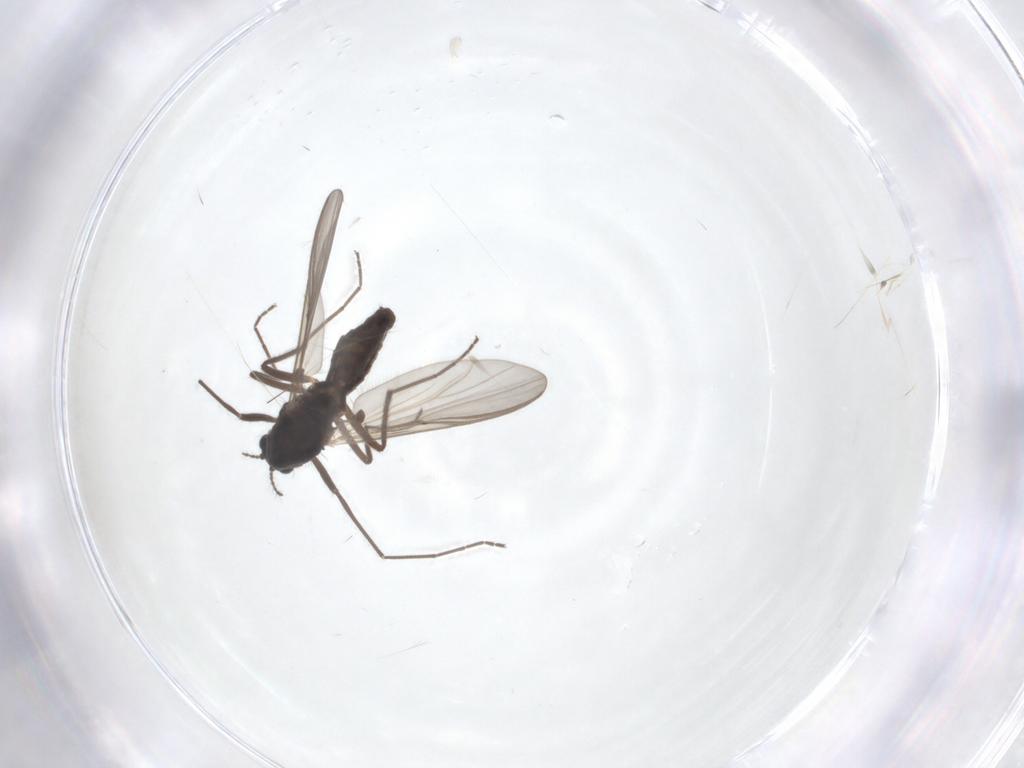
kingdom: Animalia
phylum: Arthropoda
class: Insecta
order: Diptera
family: Chironomidae
